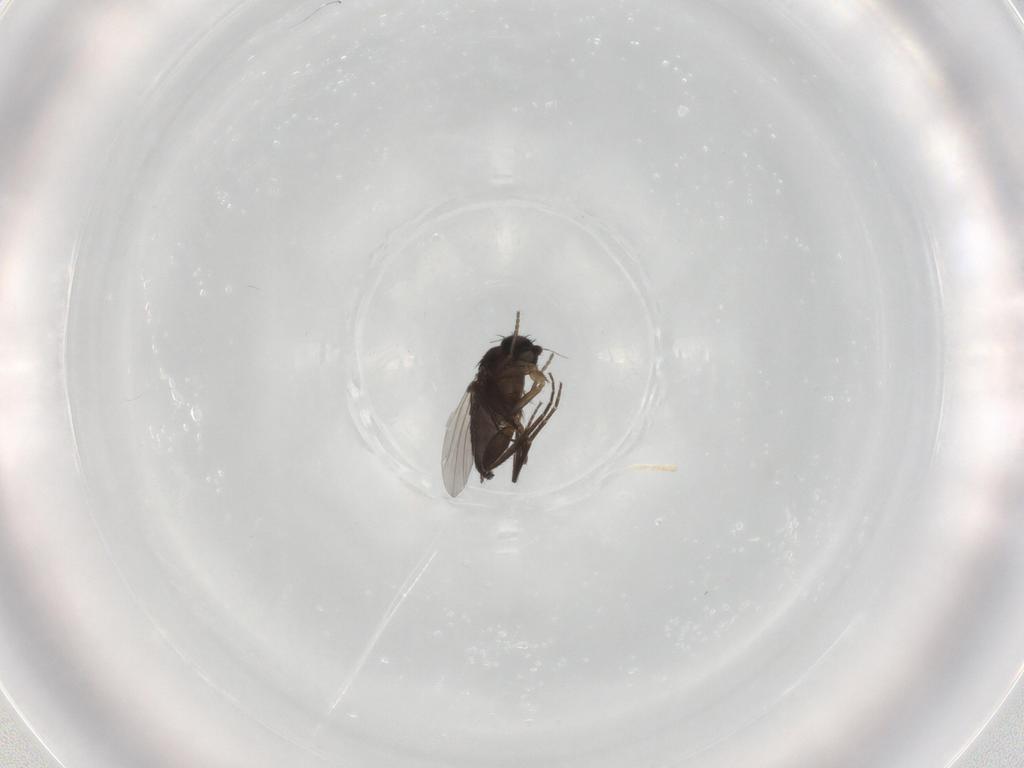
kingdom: Animalia
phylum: Arthropoda
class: Insecta
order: Diptera
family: Phoridae
